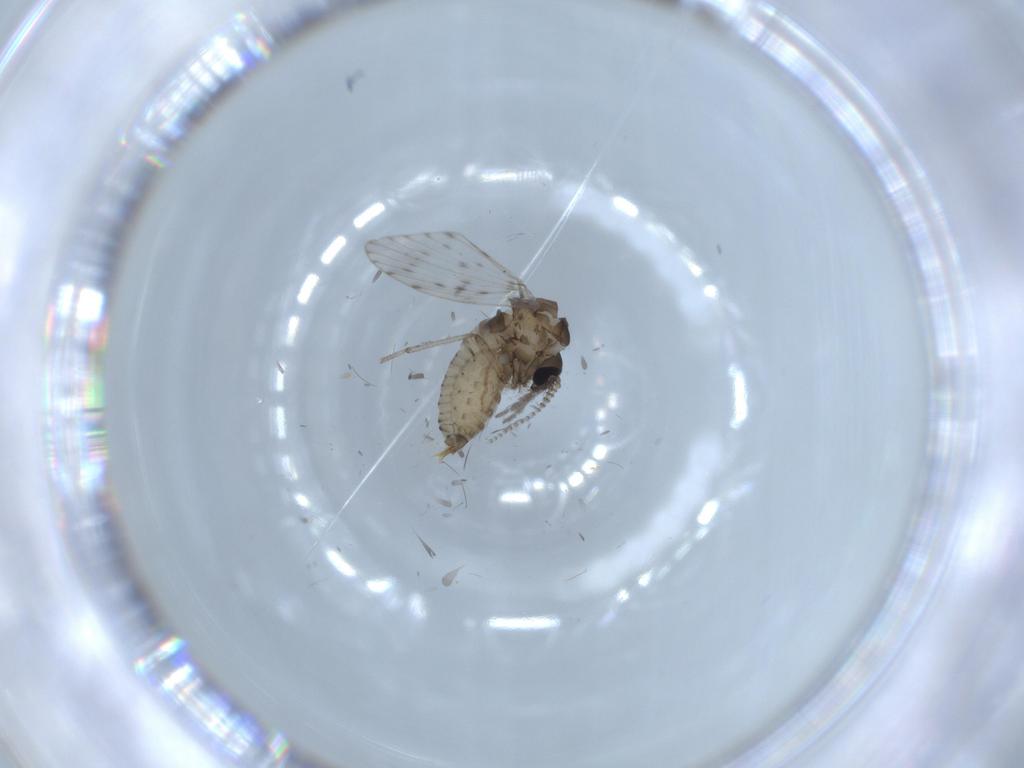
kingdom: Animalia
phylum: Arthropoda
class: Insecta
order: Diptera
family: Psychodidae
